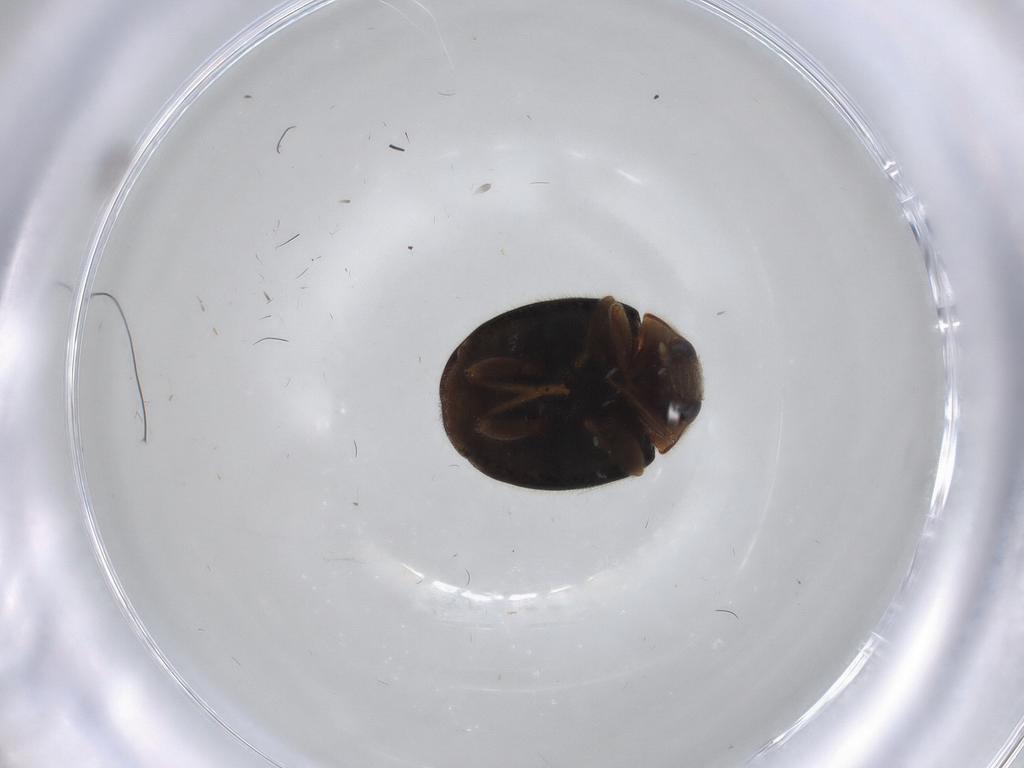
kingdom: Animalia
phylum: Arthropoda
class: Insecta
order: Coleoptera
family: Coccinellidae
